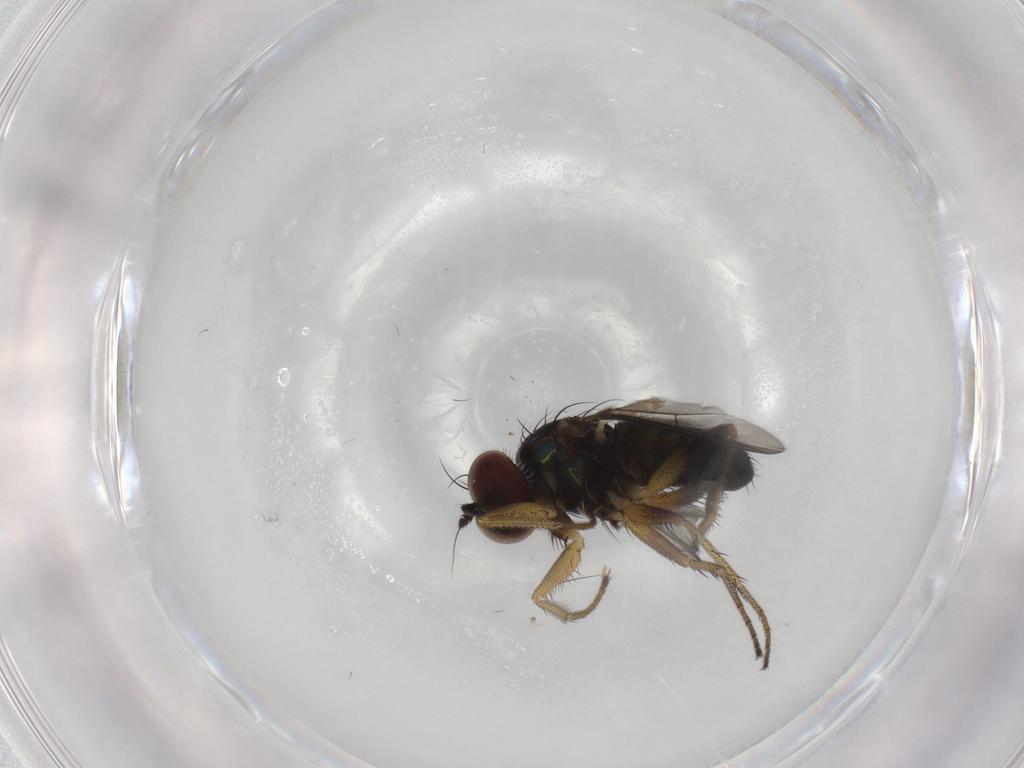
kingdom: Animalia
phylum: Arthropoda
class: Insecta
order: Diptera
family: Dolichopodidae
